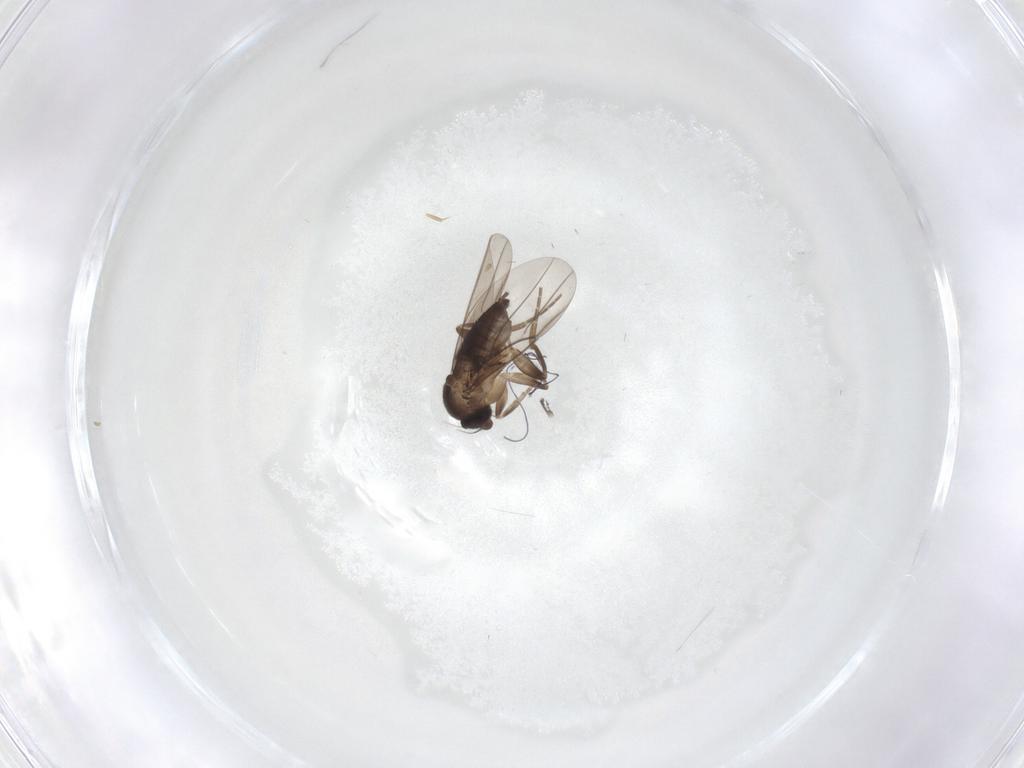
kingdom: Animalia
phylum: Arthropoda
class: Insecta
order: Diptera
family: Phoridae
